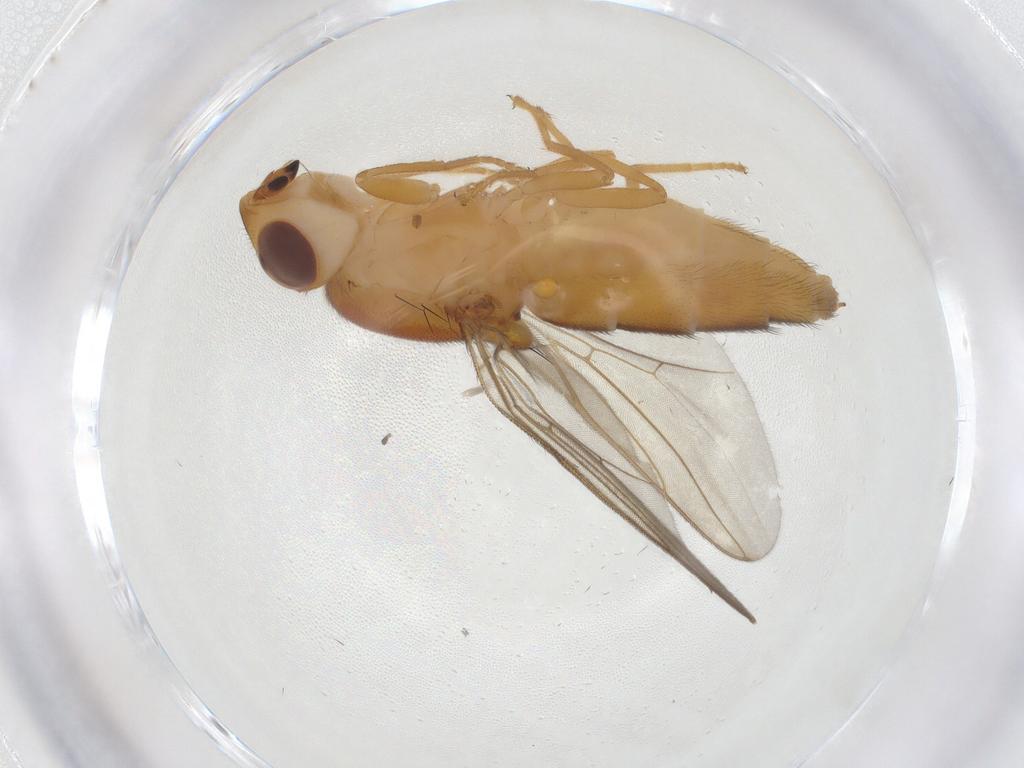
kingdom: Animalia
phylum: Arthropoda
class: Insecta
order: Diptera
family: Chloropidae
